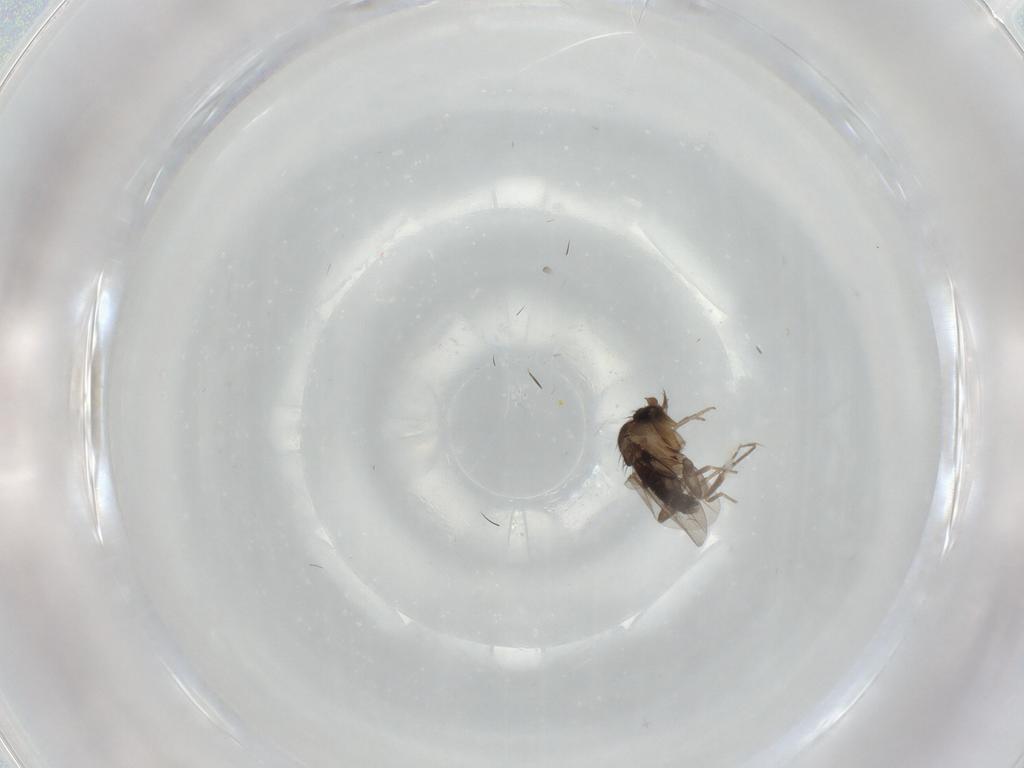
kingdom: Animalia
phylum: Arthropoda
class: Insecta
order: Diptera
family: Phoridae
